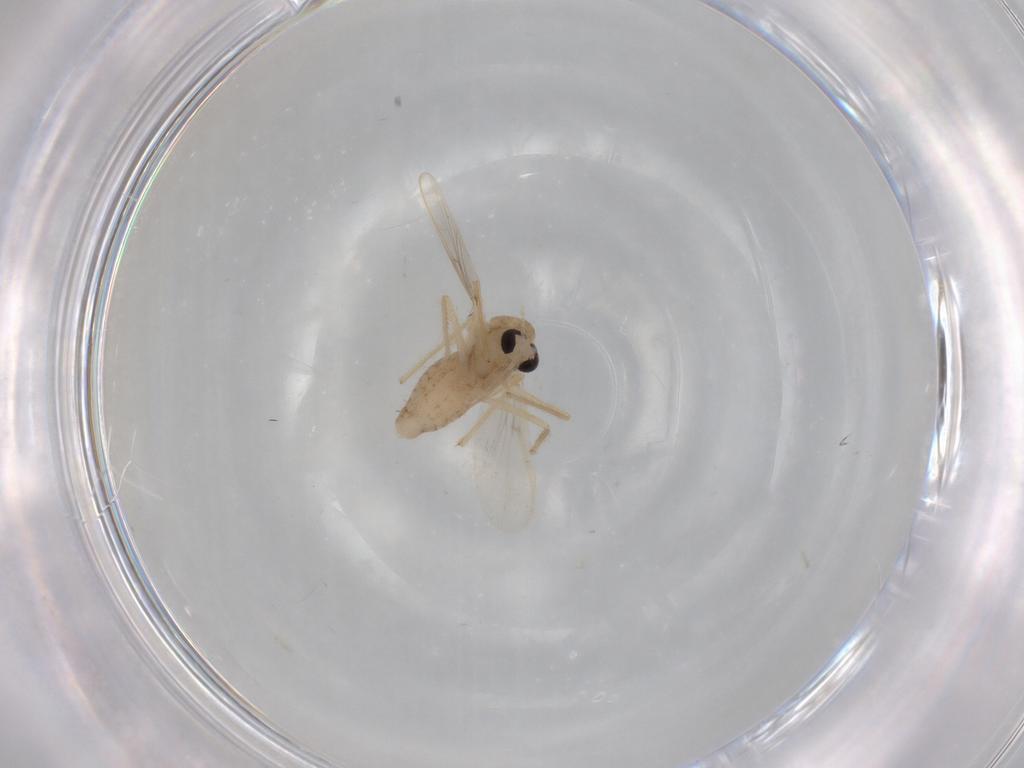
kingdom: Animalia
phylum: Arthropoda
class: Insecta
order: Diptera
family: Chironomidae
